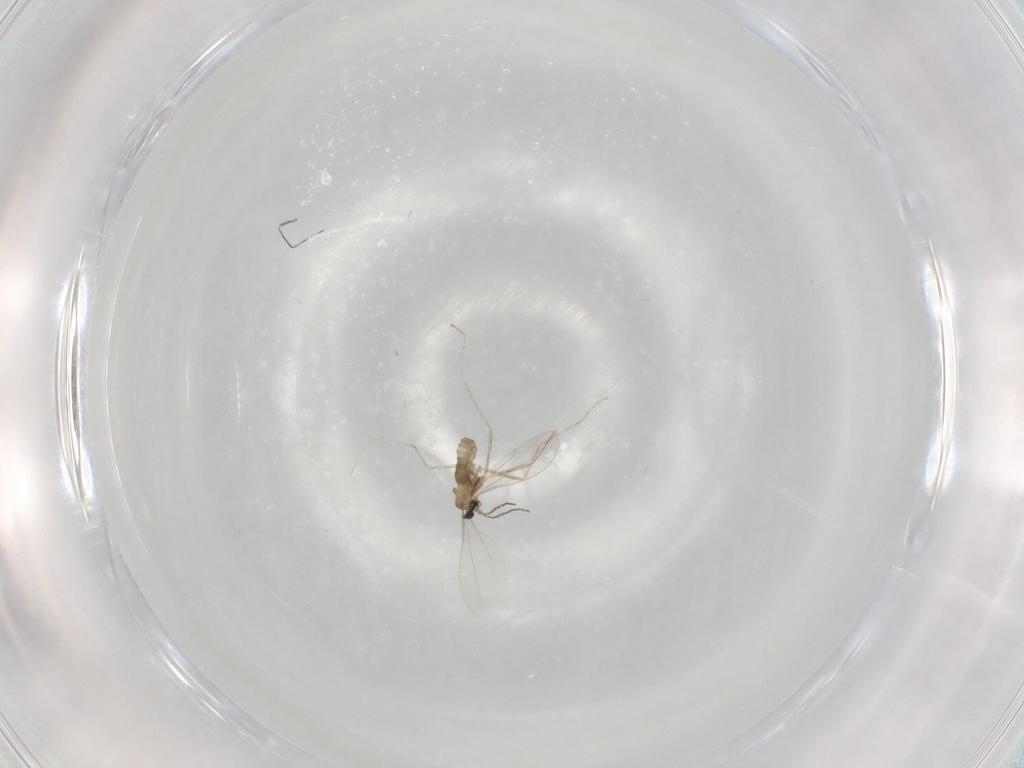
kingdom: Animalia
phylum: Arthropoda
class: Insecta
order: Diptera
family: Cecidomyiidae
